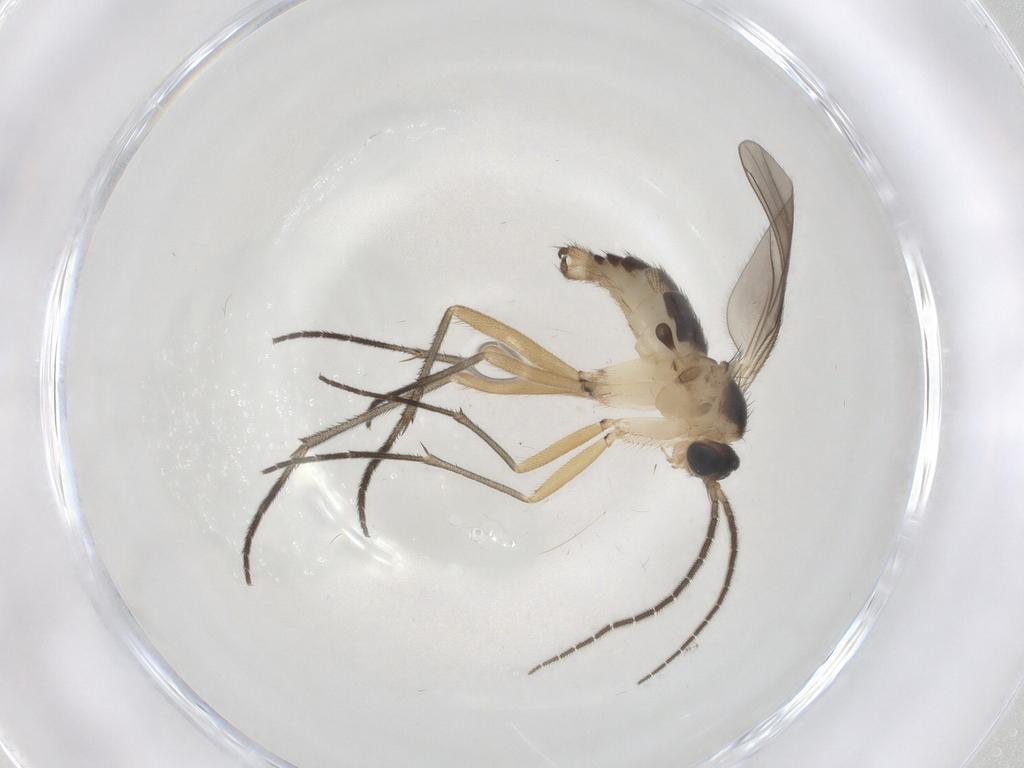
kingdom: Animalia
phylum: Arthropoda
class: Insecta
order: Diptera
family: Sciaridae
